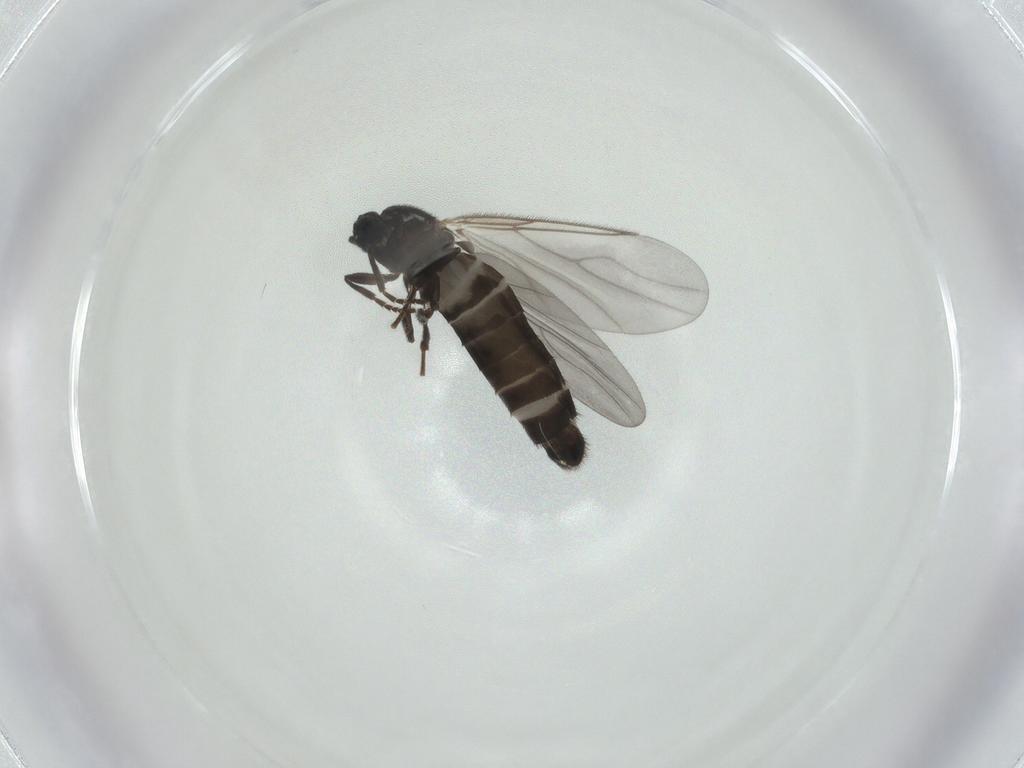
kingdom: Animalia
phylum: Arthropoda
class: Insecta
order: Diptera
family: Scatopsidae
